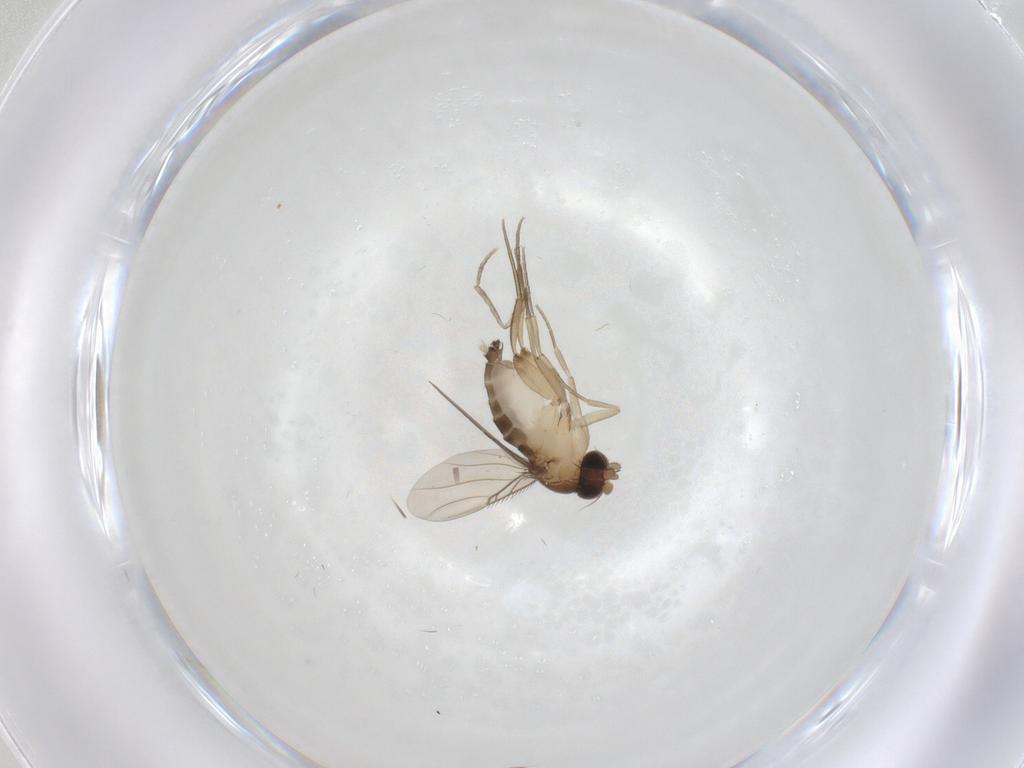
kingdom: Animalia
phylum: Arthropoda
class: Insecta
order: Diptera
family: Phoridae
